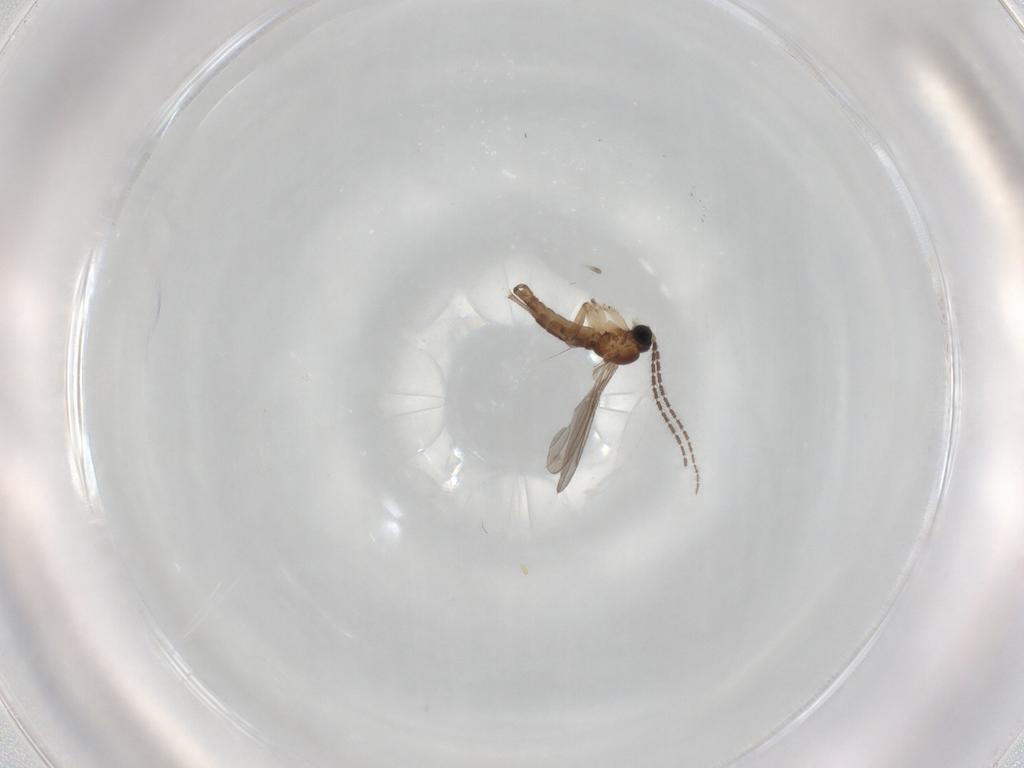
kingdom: Animalia
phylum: Arthropoda
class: Insecta
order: Diptera
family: Sciaridae
